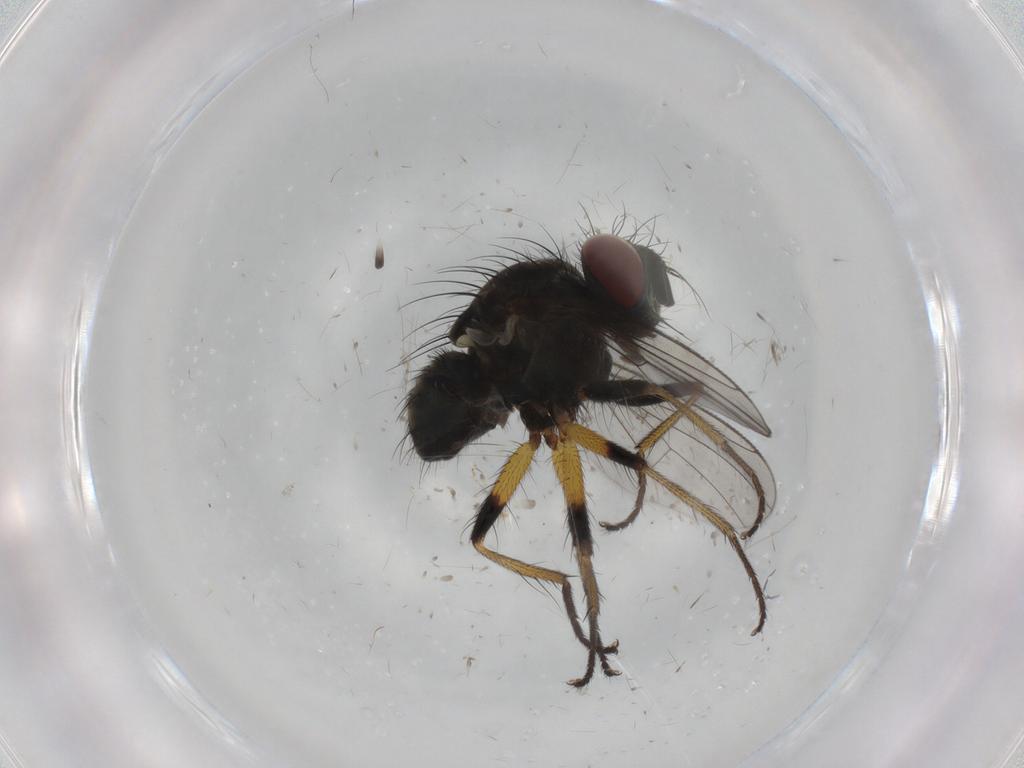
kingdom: Animalia
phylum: Arthropoda
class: Insecta
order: Diptera
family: Muscidae
